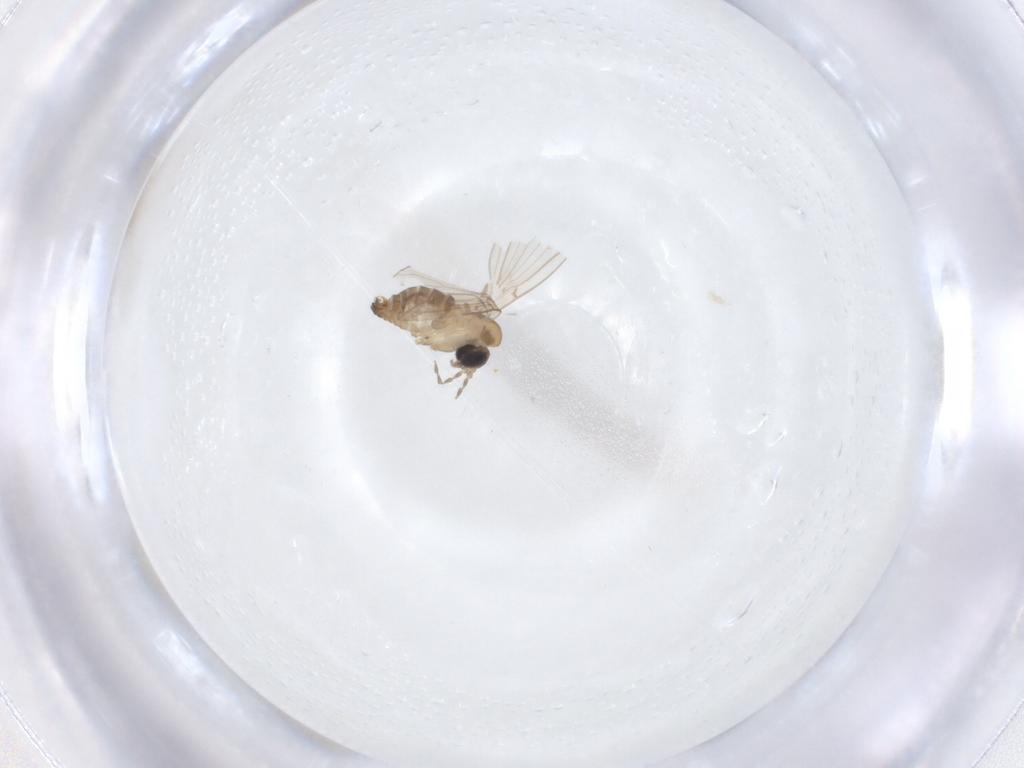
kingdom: Animalia
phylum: Arthropoda
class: Insecta
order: Diptera
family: Psychodidae
